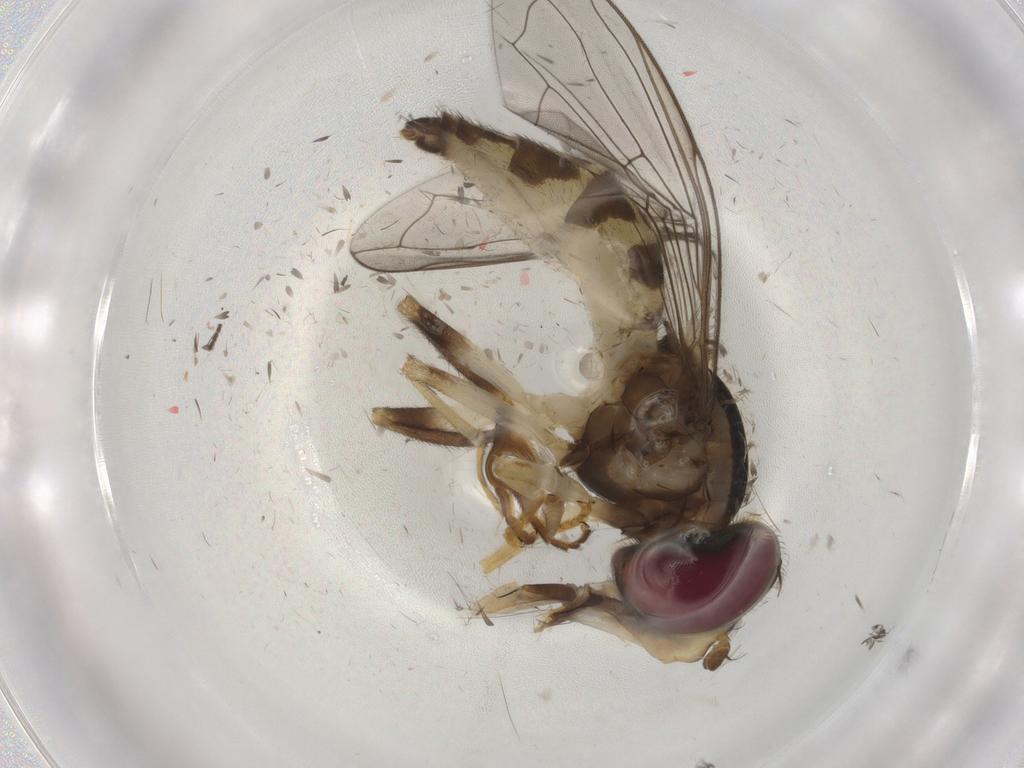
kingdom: Animalia
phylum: Arthropoda
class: Insecta
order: Diptera
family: Syrphidae
